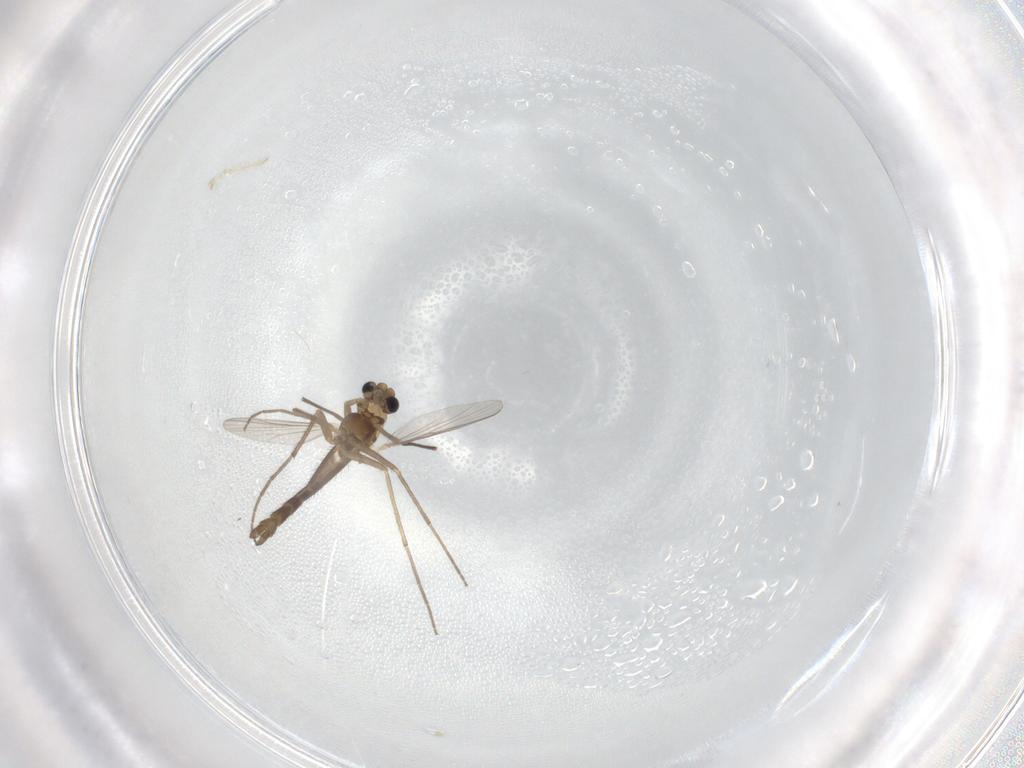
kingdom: Animalia
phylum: Arthropoda
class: Insecta
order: Diptera
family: Chironomidae
